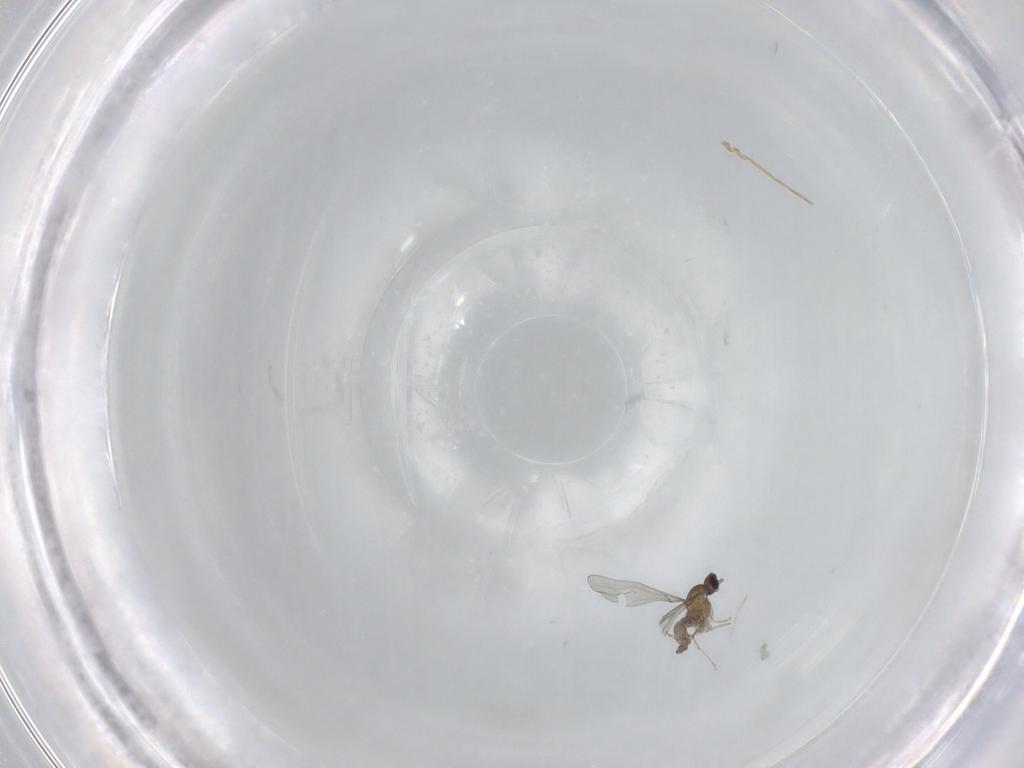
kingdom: Animalia
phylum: Arthropoda
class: Insecta
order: Diptera
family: Cecidomyiidae
